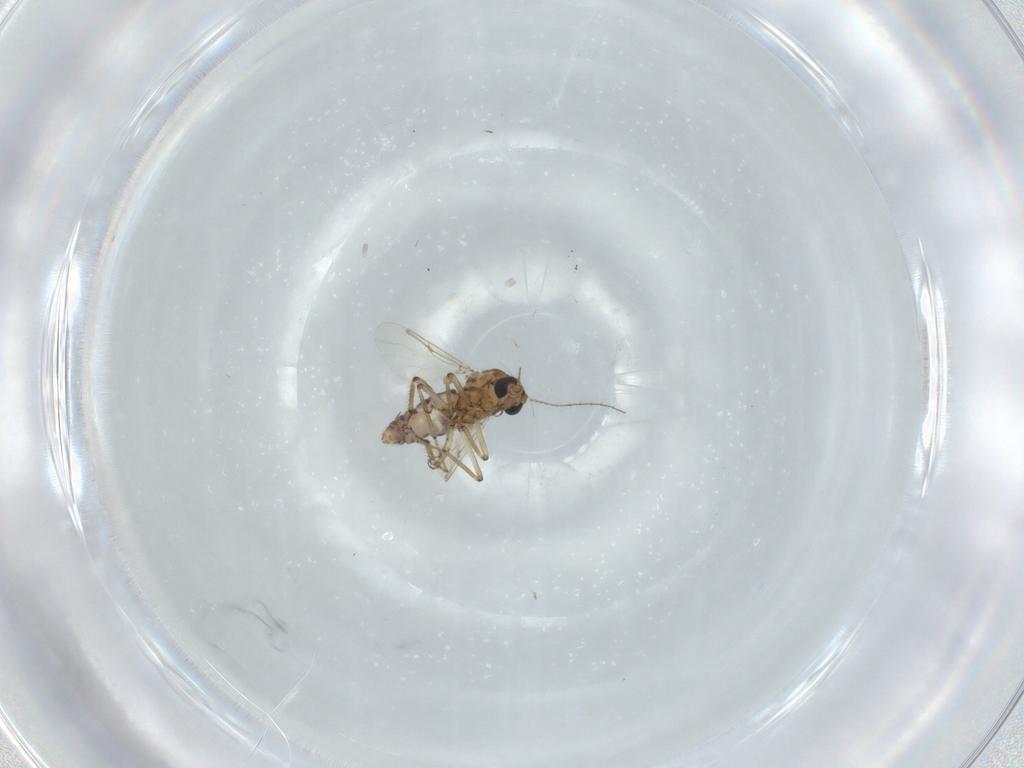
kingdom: Animalia
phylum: Arthropoda
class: Insecta
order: Diptera
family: Ceratopogonidae
